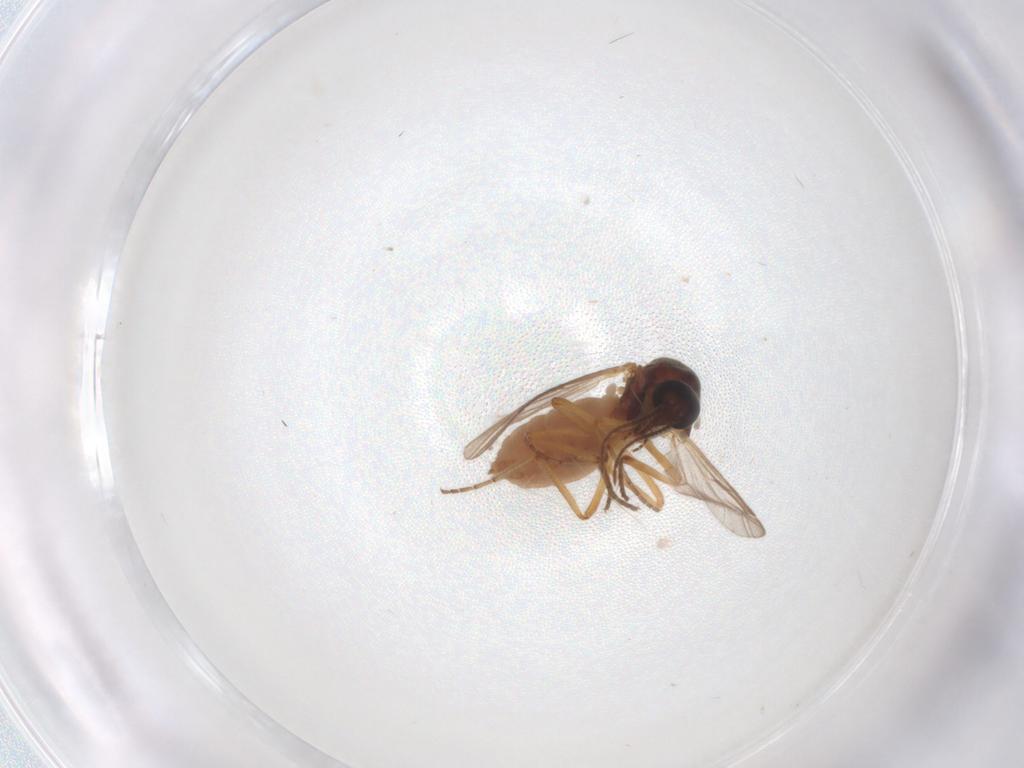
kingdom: Animalia
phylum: Arthropoda
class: Insecta
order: Diptera
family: Ceratopogonidae
